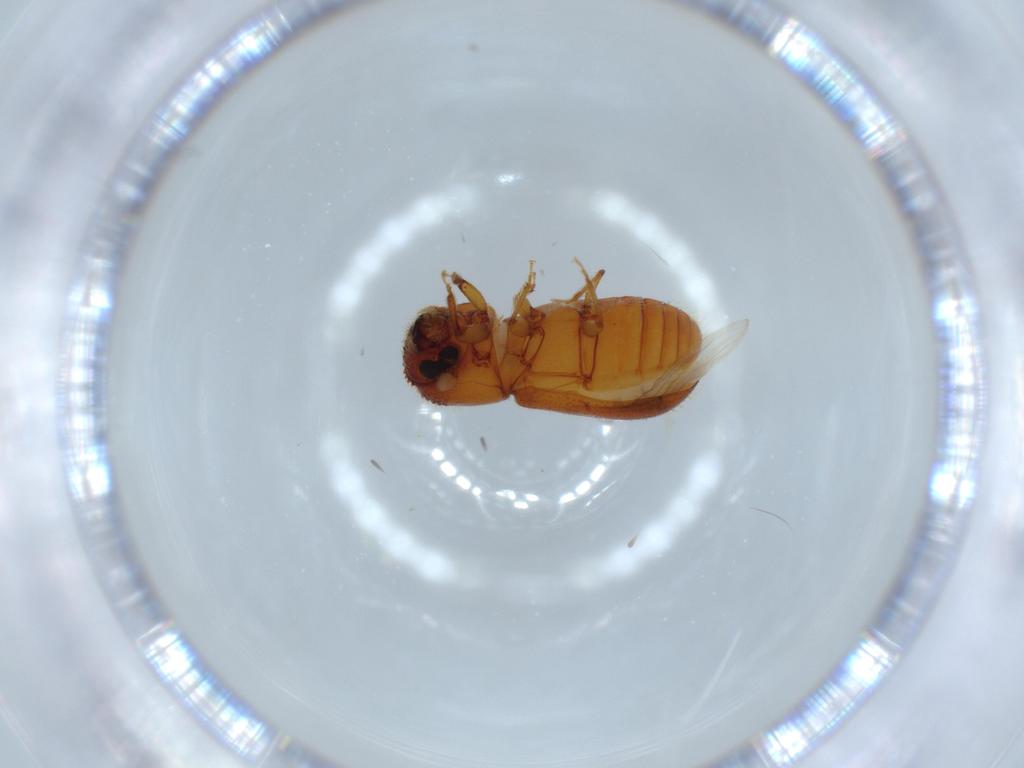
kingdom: Animalia
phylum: Arthropoda
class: Insecta
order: Coleoptera
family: Curculionidae
